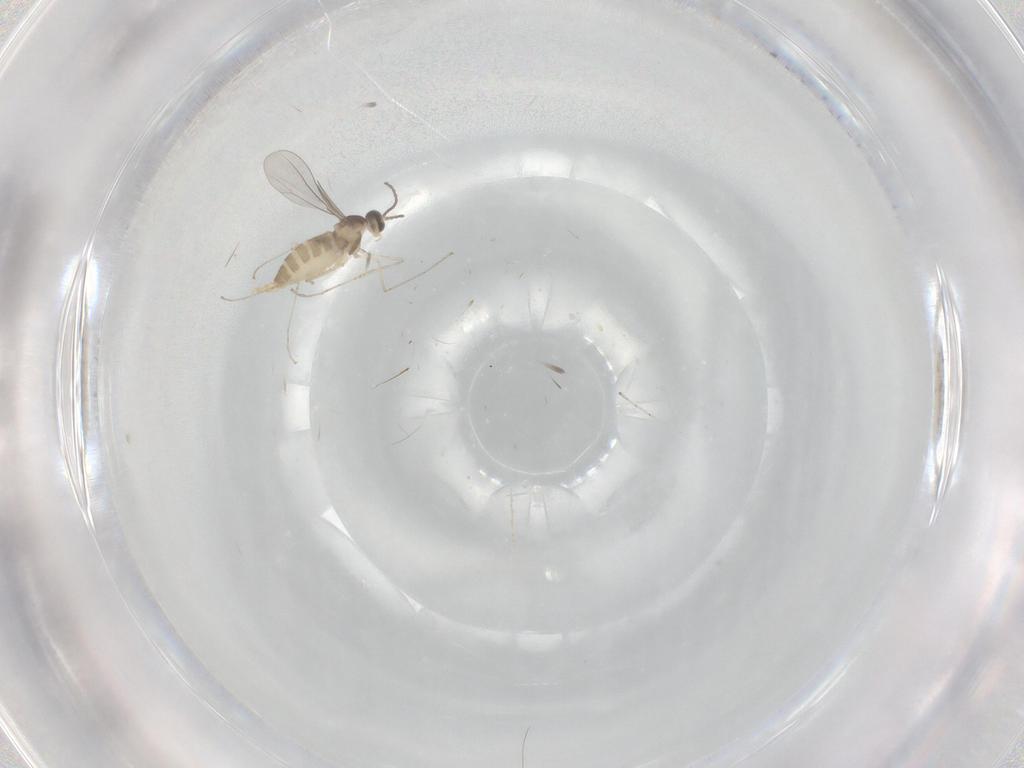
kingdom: Animalia
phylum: Arthropoda
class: Insecta
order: Diptera
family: Cecidomyiidae
